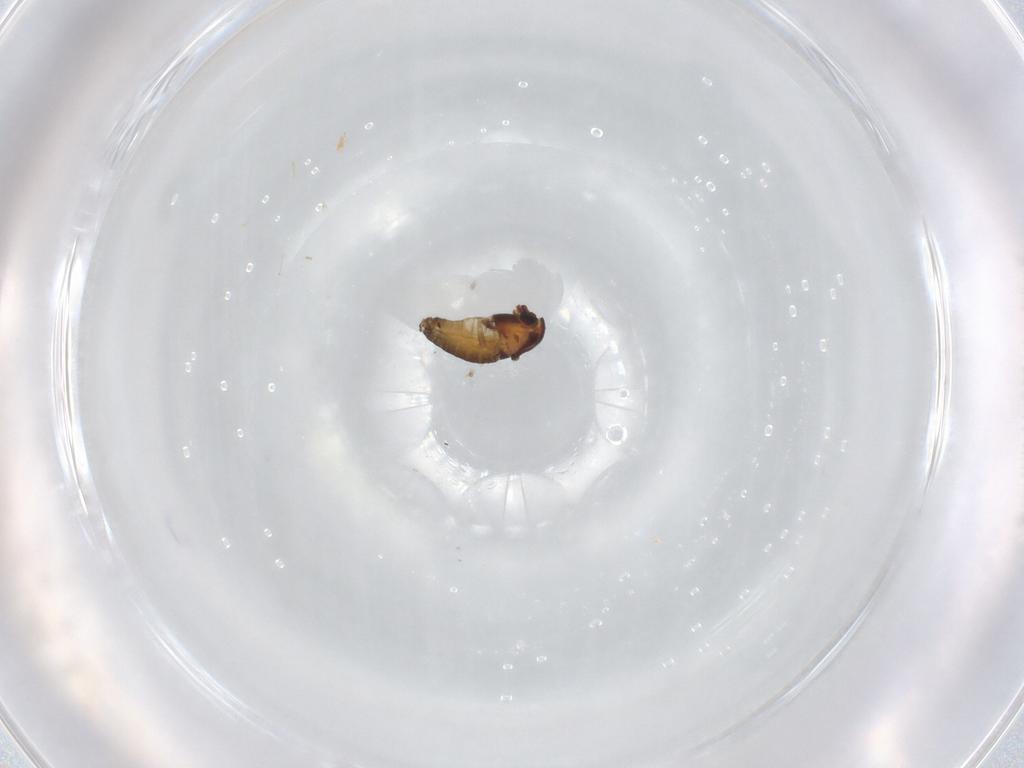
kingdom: Animalia
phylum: Arthropoda
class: Insecta
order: Diptera
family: Chironomidae
